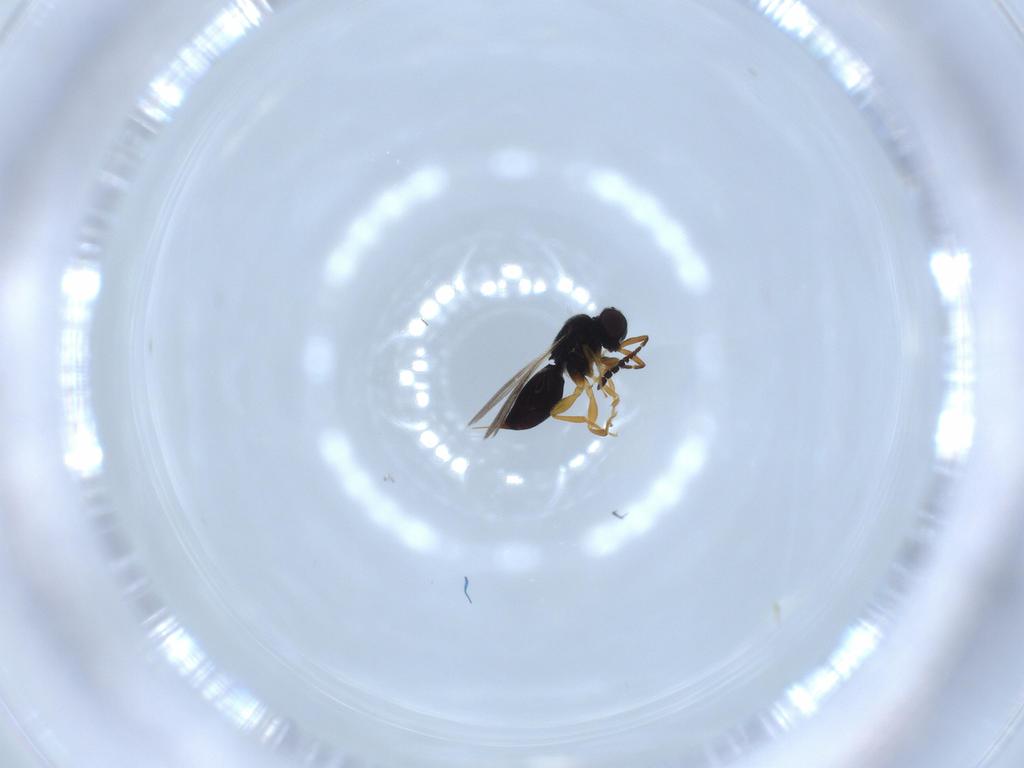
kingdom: Animalia
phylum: Arthropoda
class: Insecta
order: Hymenoptera
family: Ceraphronidae
